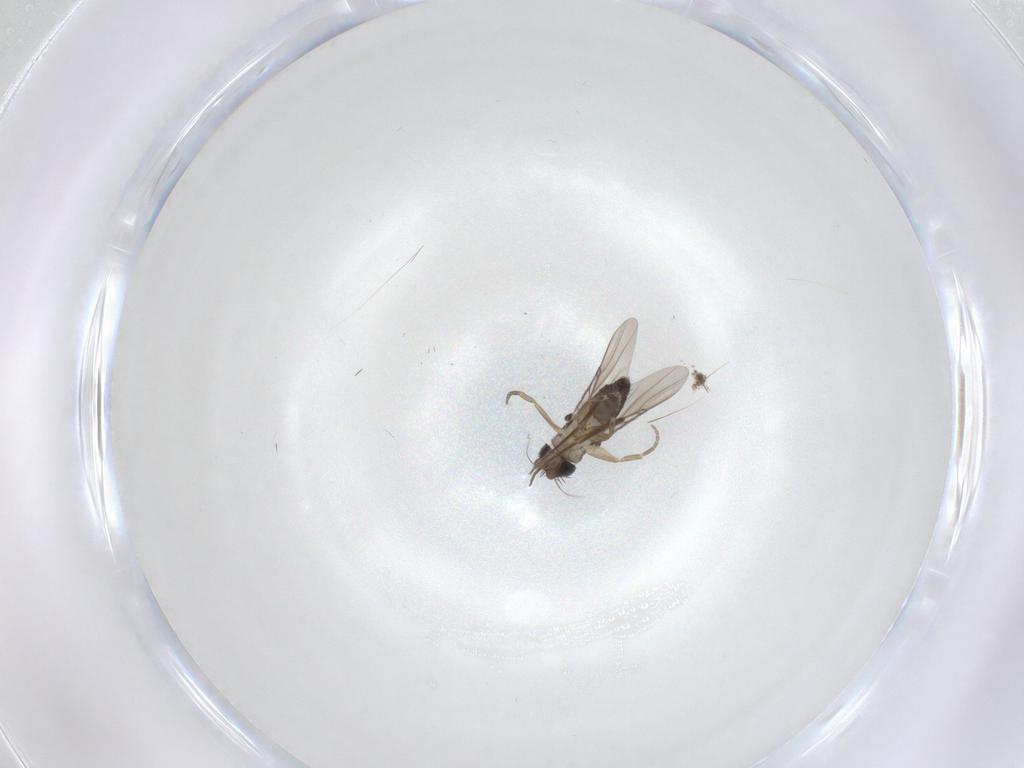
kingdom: Animalia
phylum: Arthropoda
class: Insecta
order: Diptera
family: Phoridae
